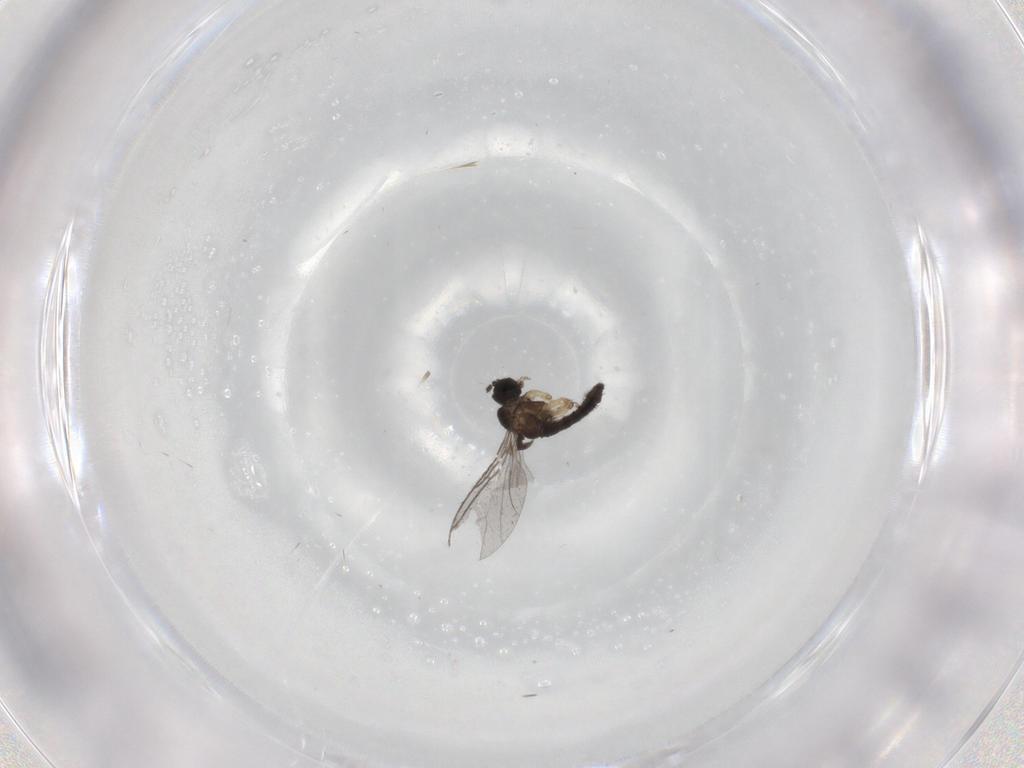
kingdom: Animalia
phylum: Arthropoda
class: Insecta
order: Diptera
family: Sciaridae
